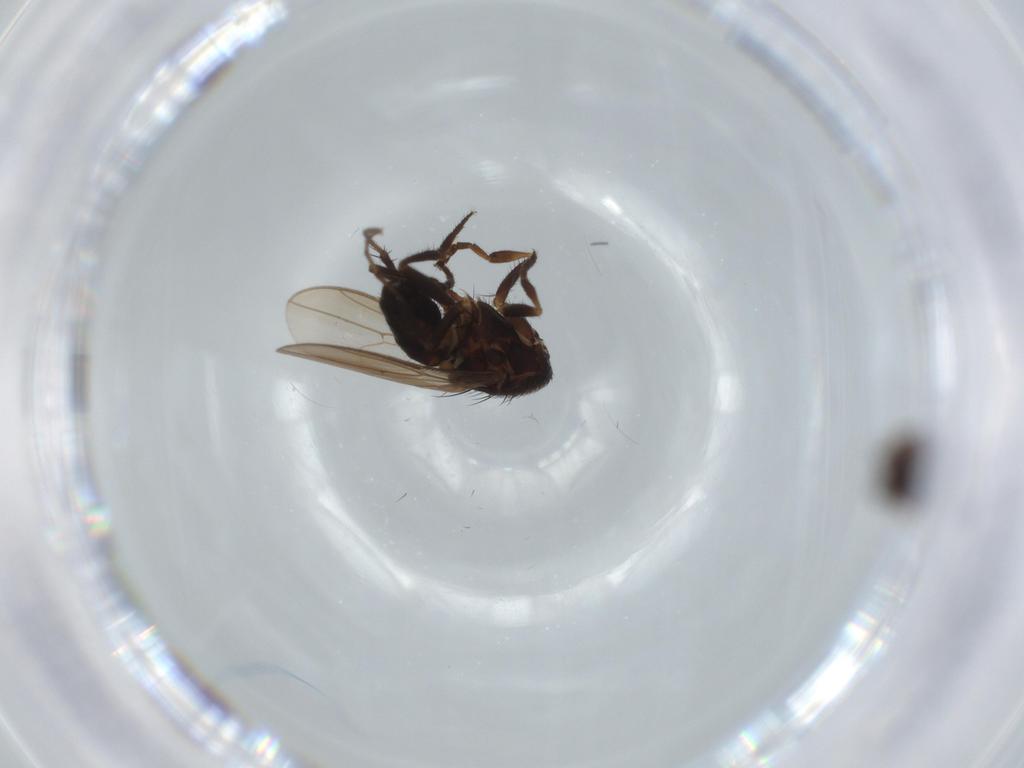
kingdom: Animalia
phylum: Arthropoda
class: Insecta
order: Diptera
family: Sphaeroceridae
